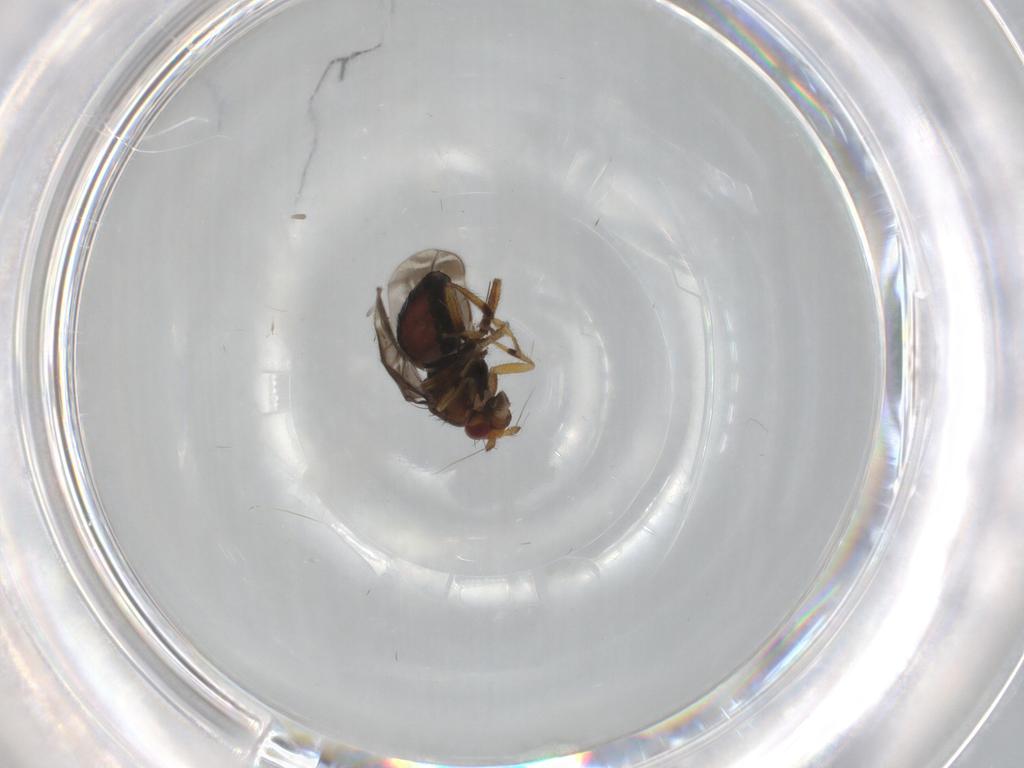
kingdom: Animalia
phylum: Arthropoda
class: Insecta
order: Diptera
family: Sphaeroceridae
